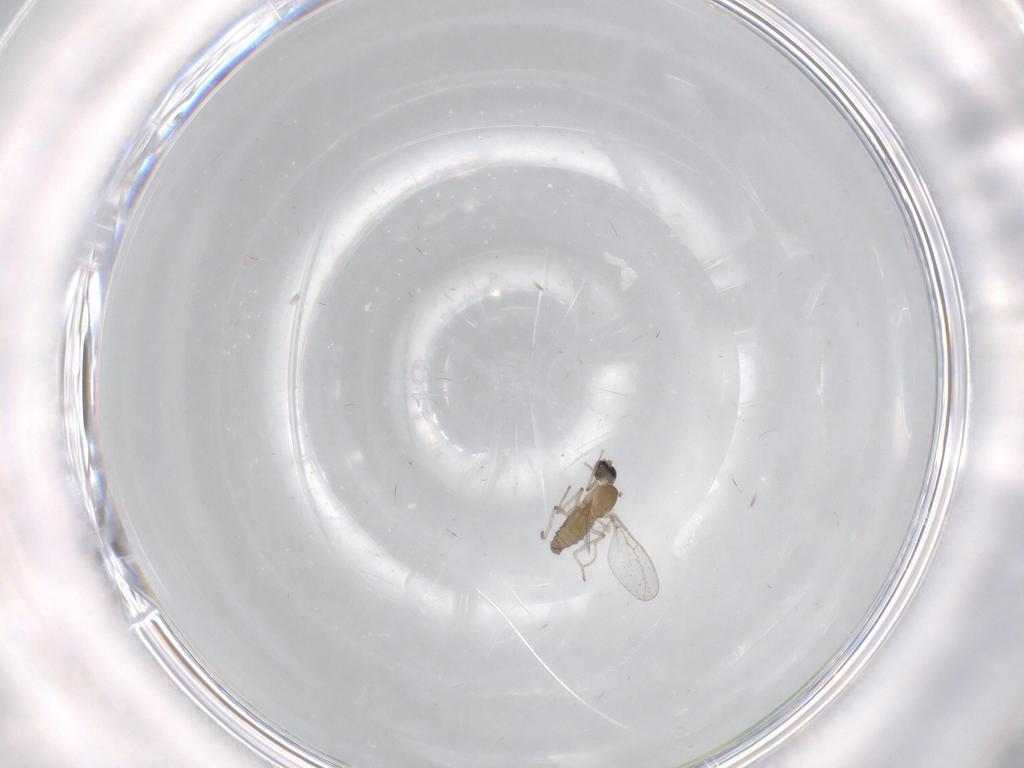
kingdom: Animalia
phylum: Arthropoda
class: Insecta
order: Diptera
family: Cecidomyiidae
